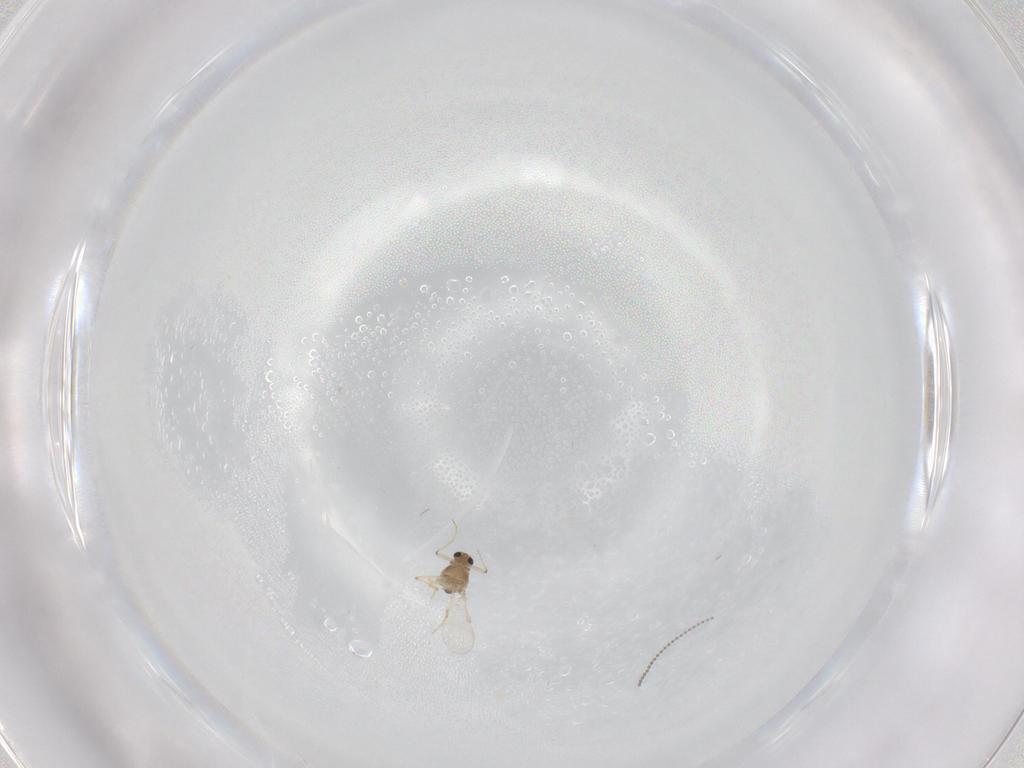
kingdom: Animalia
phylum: Arthropoda
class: Insecta
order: Diptera
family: Chironomidae
